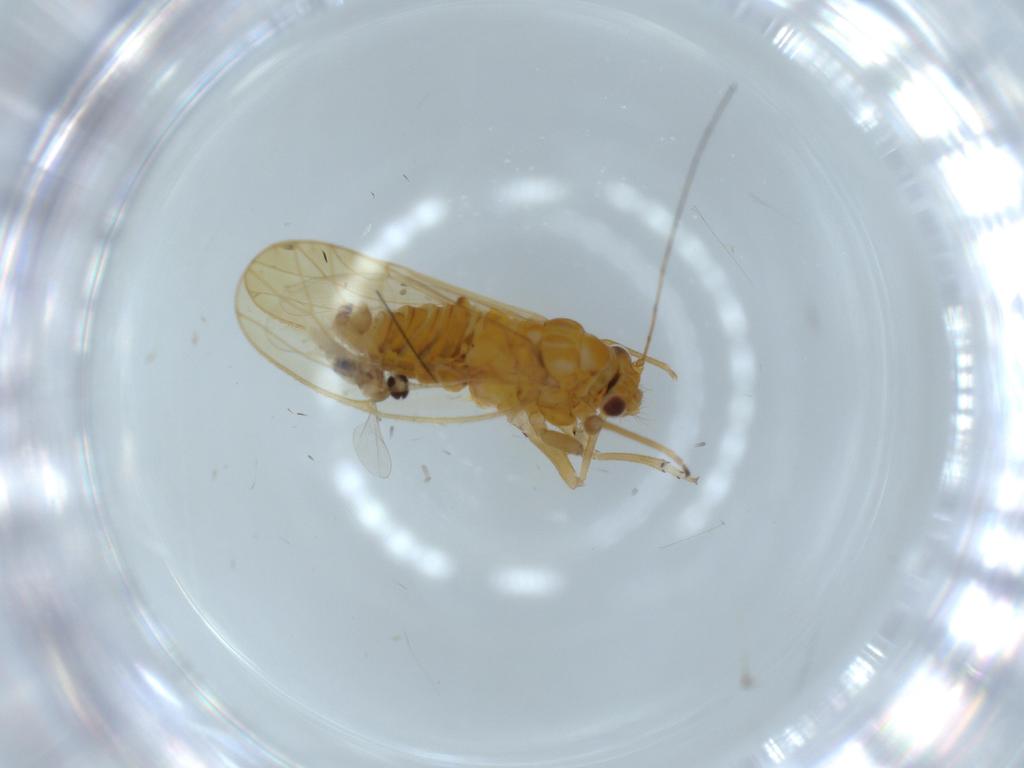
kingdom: Animalia
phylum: Arthropoda
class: Insecta
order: Hemiptera
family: Psyllidae
